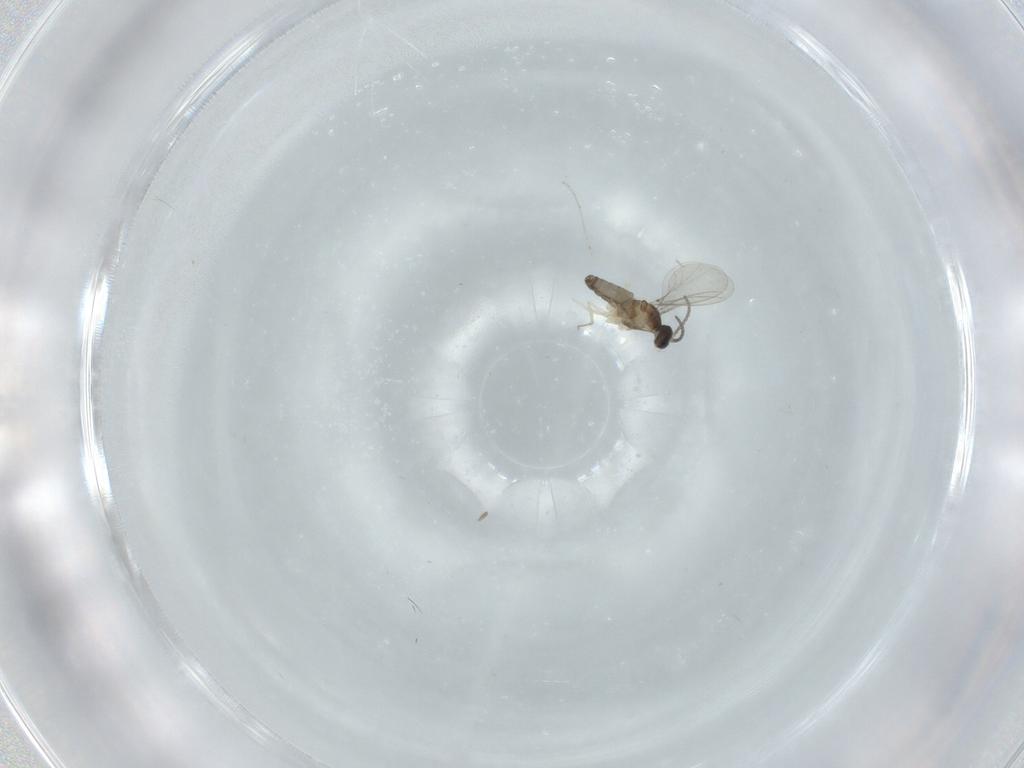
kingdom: Animalia
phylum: Arthropoda
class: Insecta
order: Diptera
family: Cecidomyiidae
